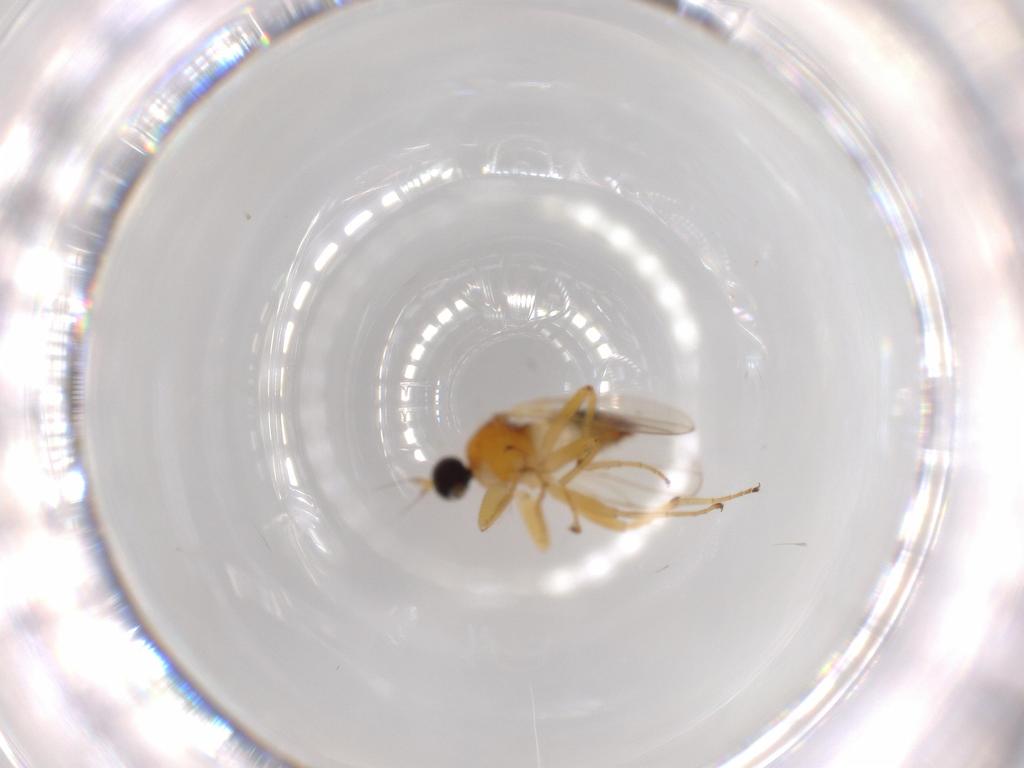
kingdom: Animalia
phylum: Arthropoda
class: Insecta
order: Diptera
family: Hybotidae
